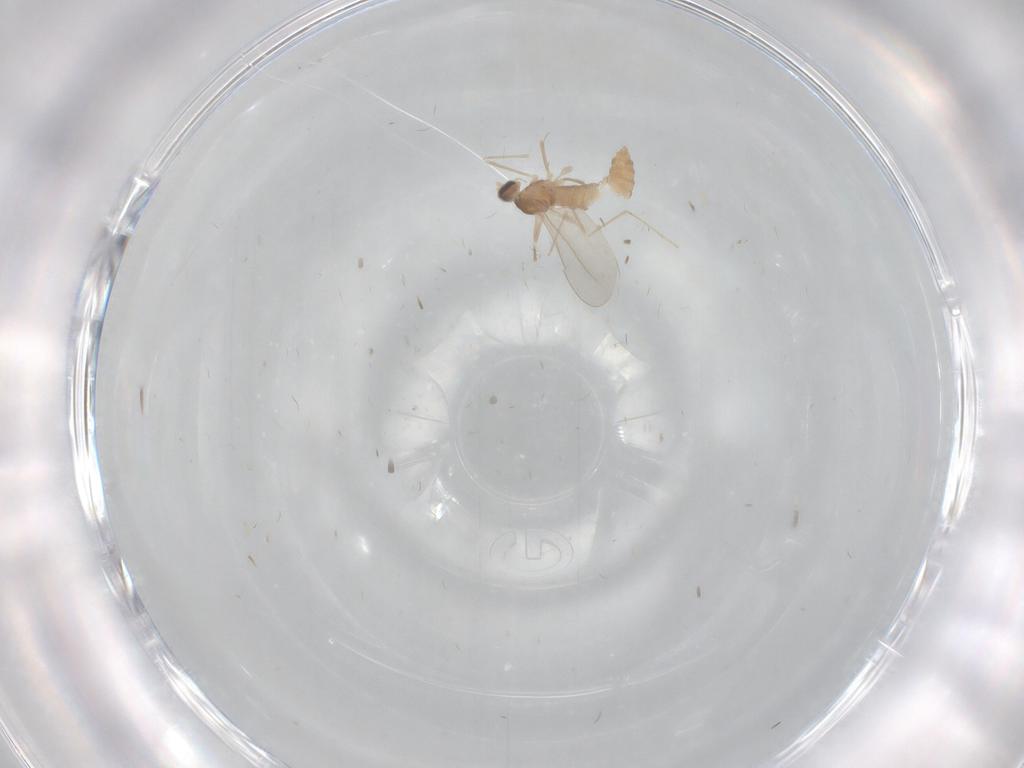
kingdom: Animalia
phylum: Arthropoda
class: Insecta
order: Diptera
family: Cecidomyiidae
